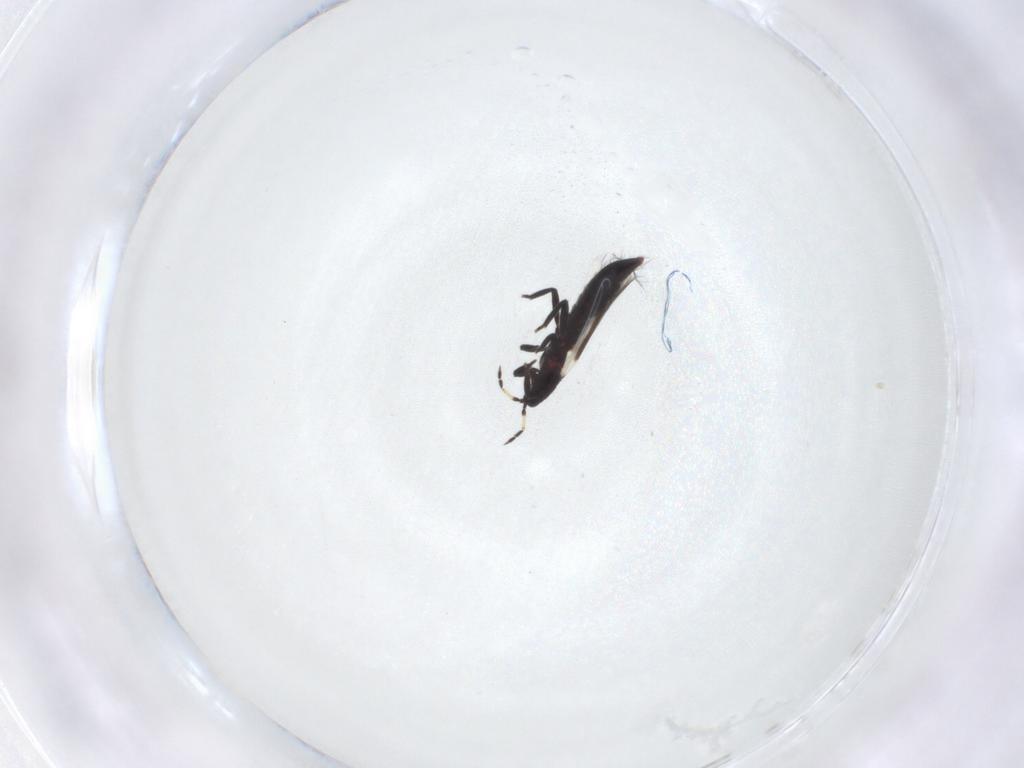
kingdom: Animalia
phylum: Arthropoda
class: Insecta
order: Thysanoptera
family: Aeolothripidae
